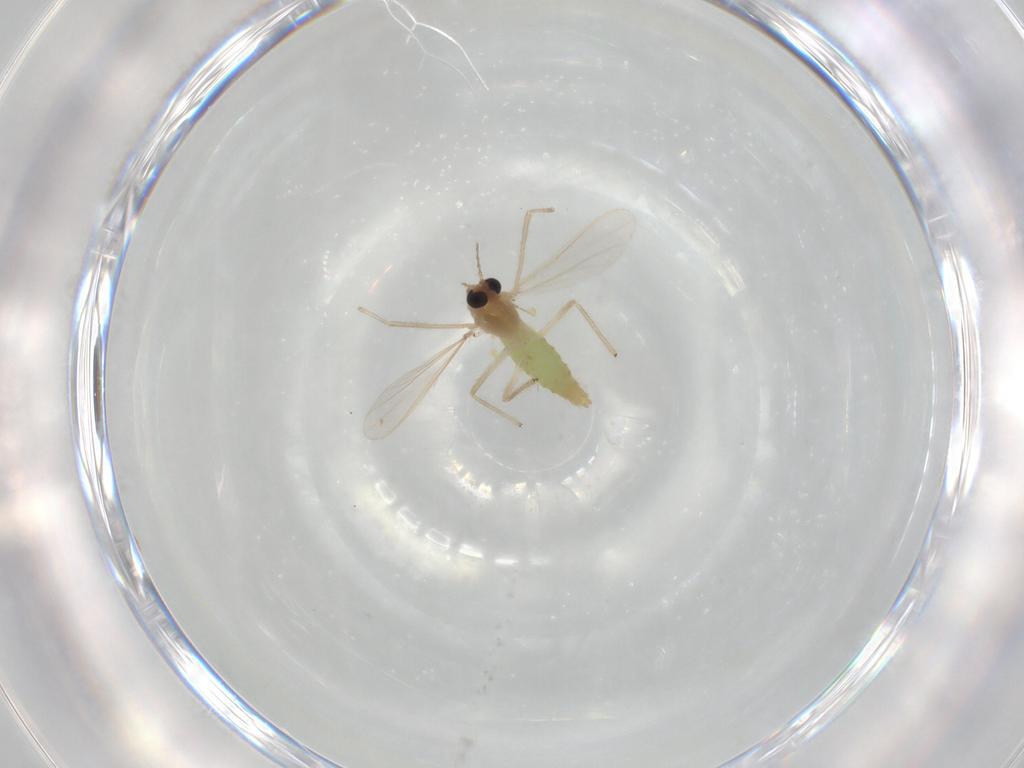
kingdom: Animalia
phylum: Arthropoda
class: Insecta
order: Diptera
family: Chironomidae
